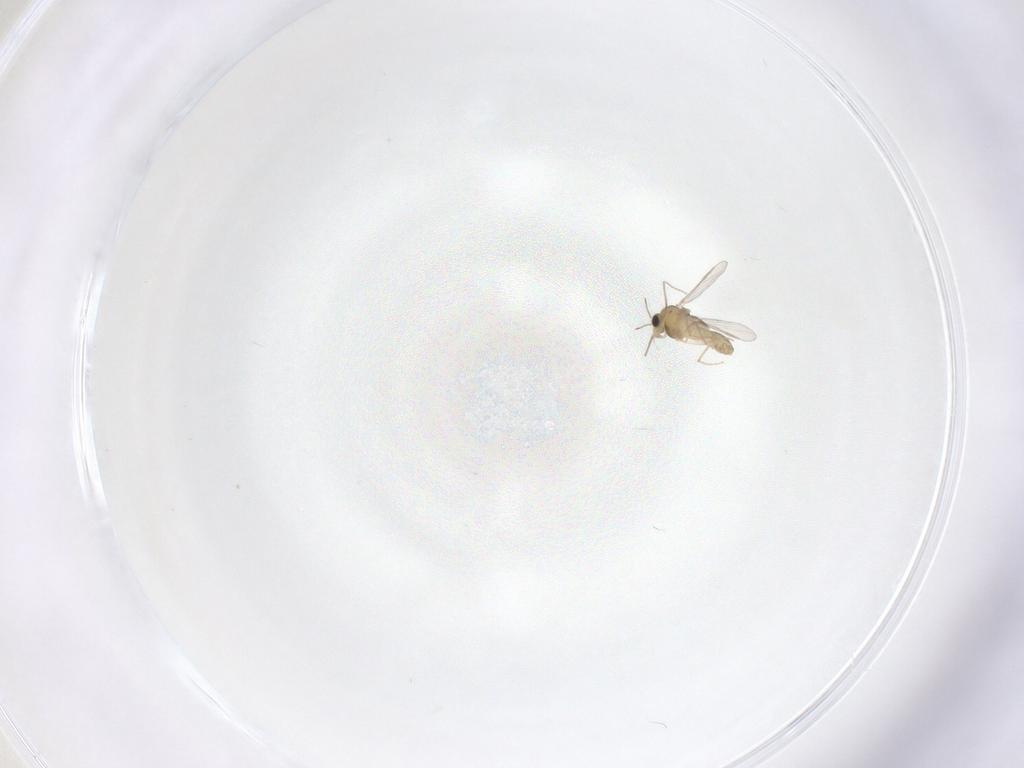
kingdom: Animalia
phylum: Arthropoda
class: Insecta
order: Diptera
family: Chironomidae
